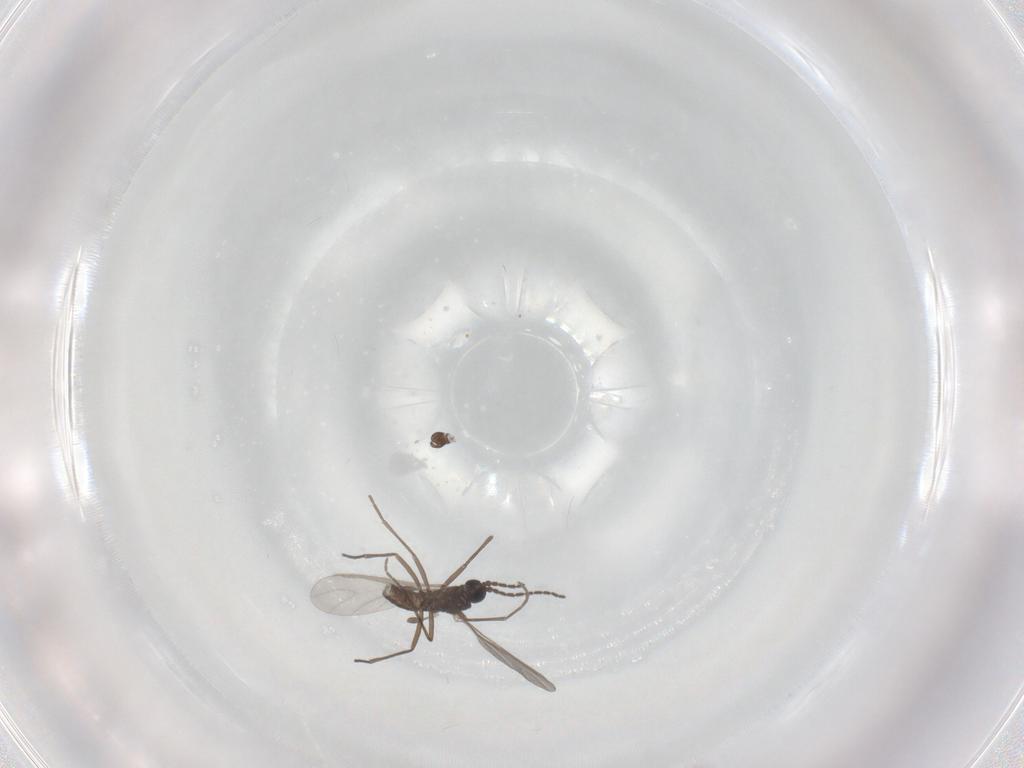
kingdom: Animalia
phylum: Arthropoda
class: Insecta
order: Diptera
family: Sciaridae
